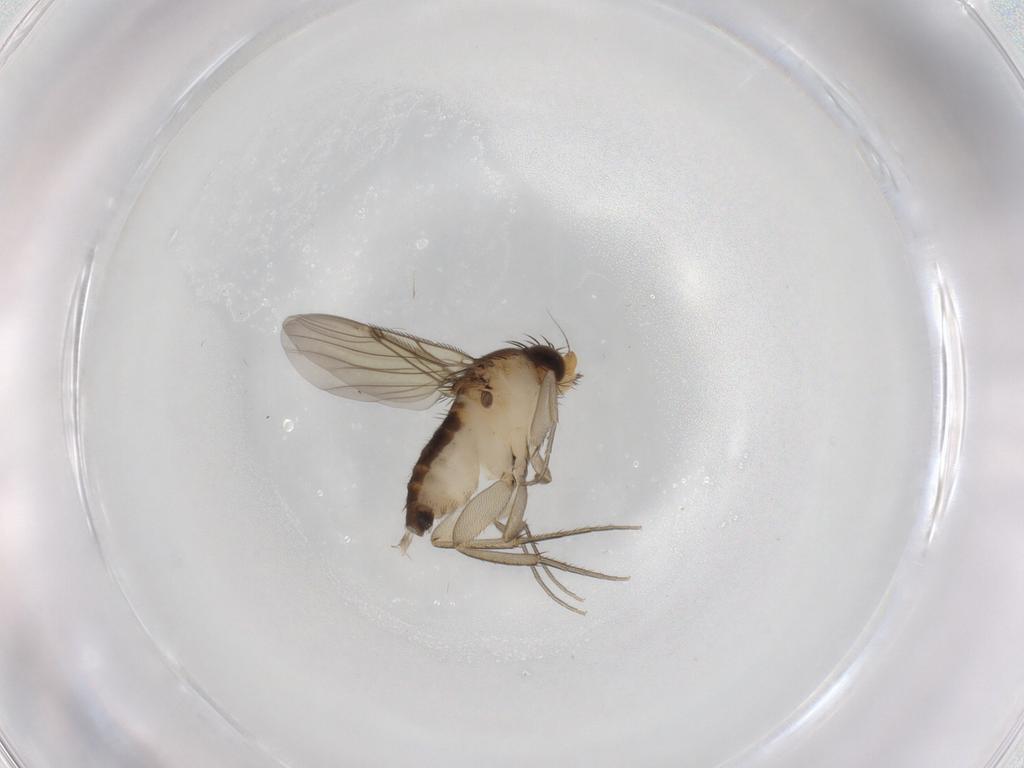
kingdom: Animalia
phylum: Arthropoda
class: Insecta
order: Diptera
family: Phoridae
